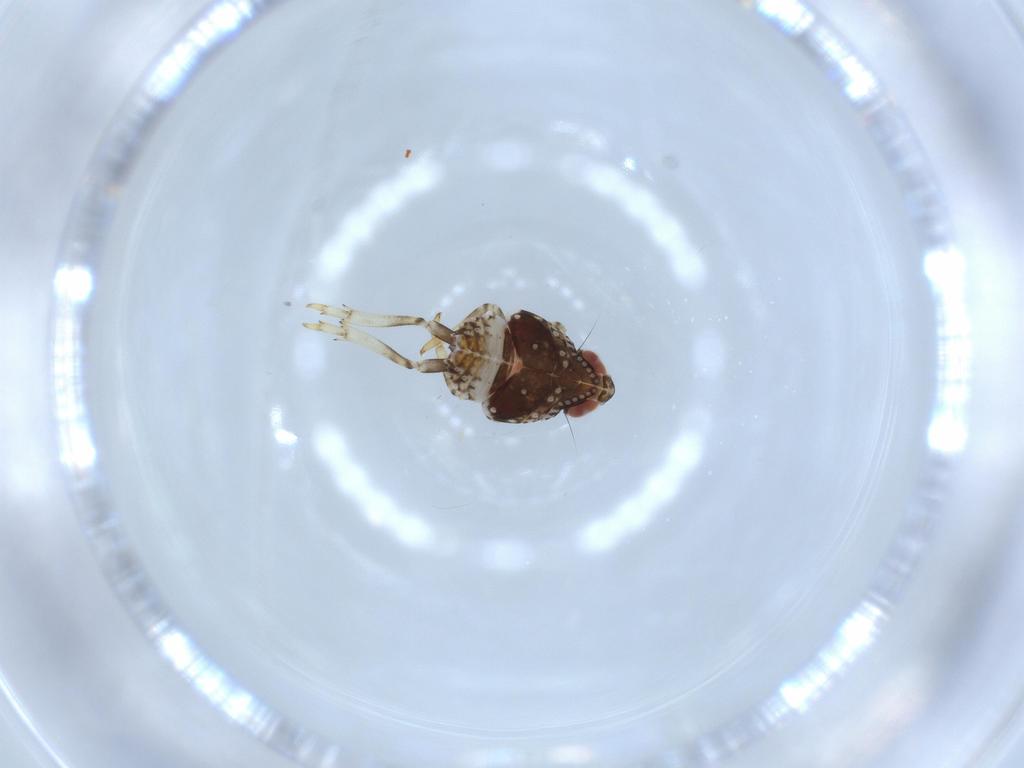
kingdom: Animalia
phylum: Arthropoda
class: Insecta
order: Hemiptera
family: Issidae
